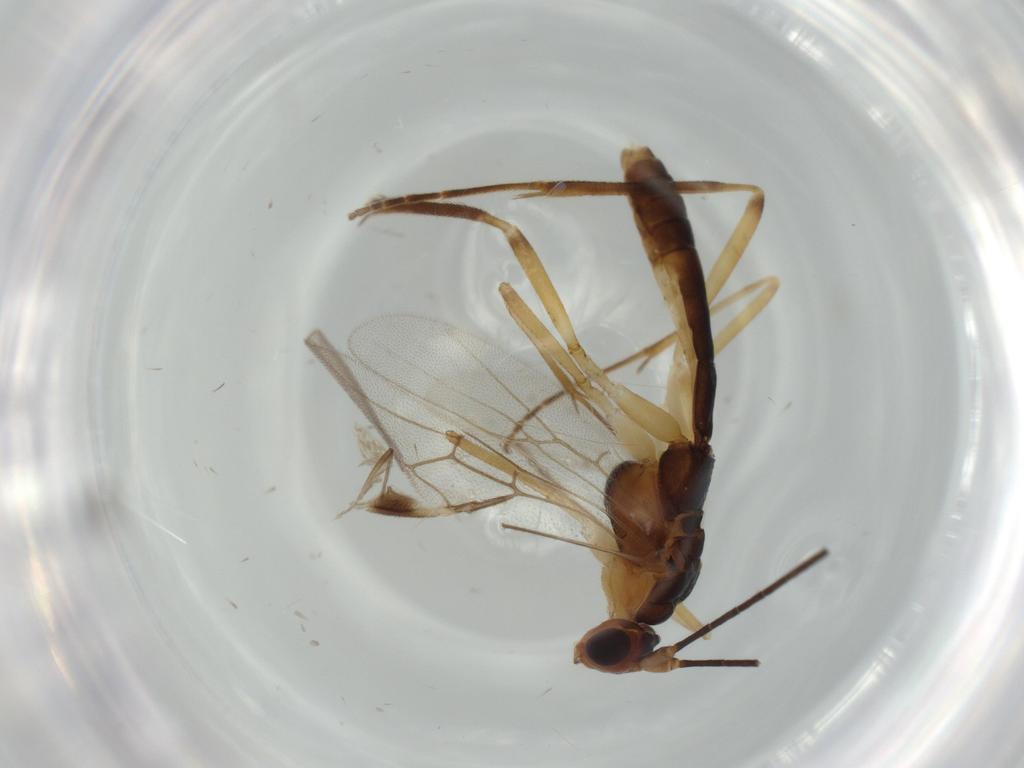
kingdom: Animalia
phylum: Arthropoda
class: Insecta
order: Hymenoptera
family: Braconidae
